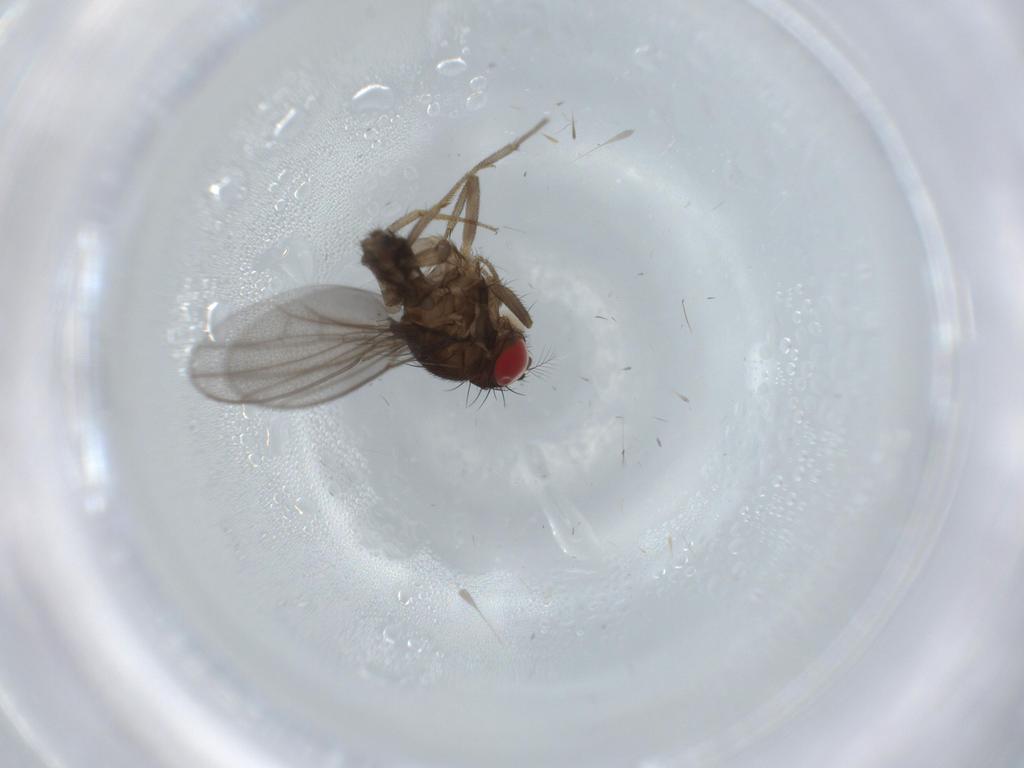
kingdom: Animalia
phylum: Arthropoda
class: Insecta
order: Diptera
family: Drosophilidae
